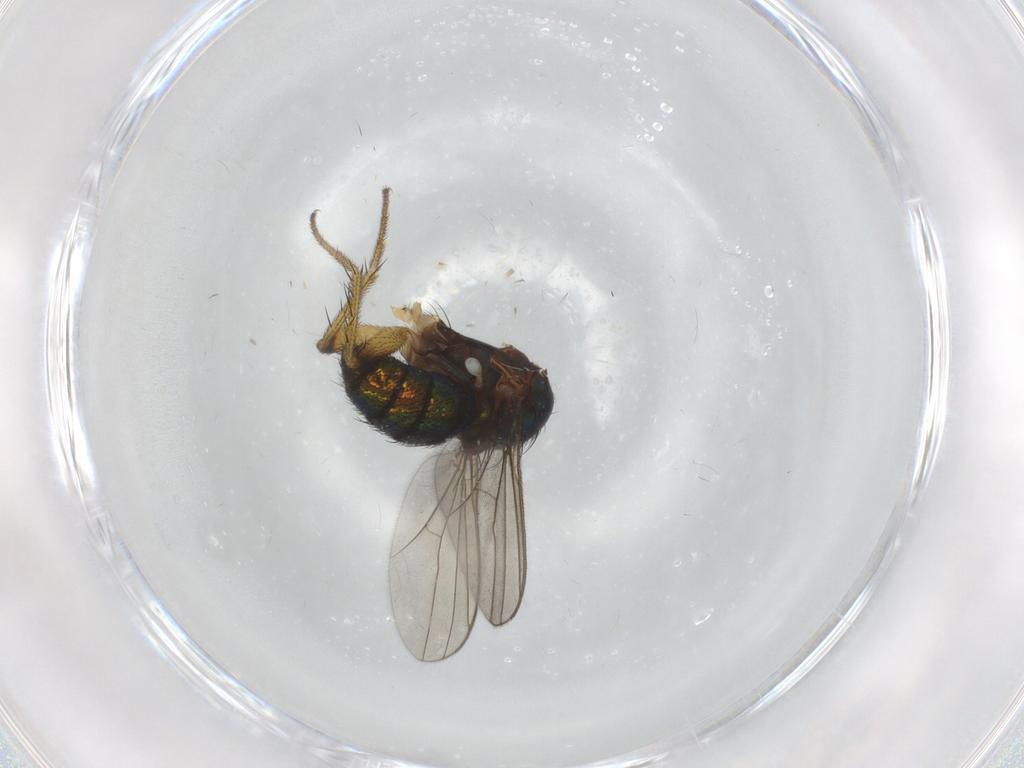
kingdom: Animalia
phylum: Arthropoda
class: Insecta
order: Diptera
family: Dolichopodidae
